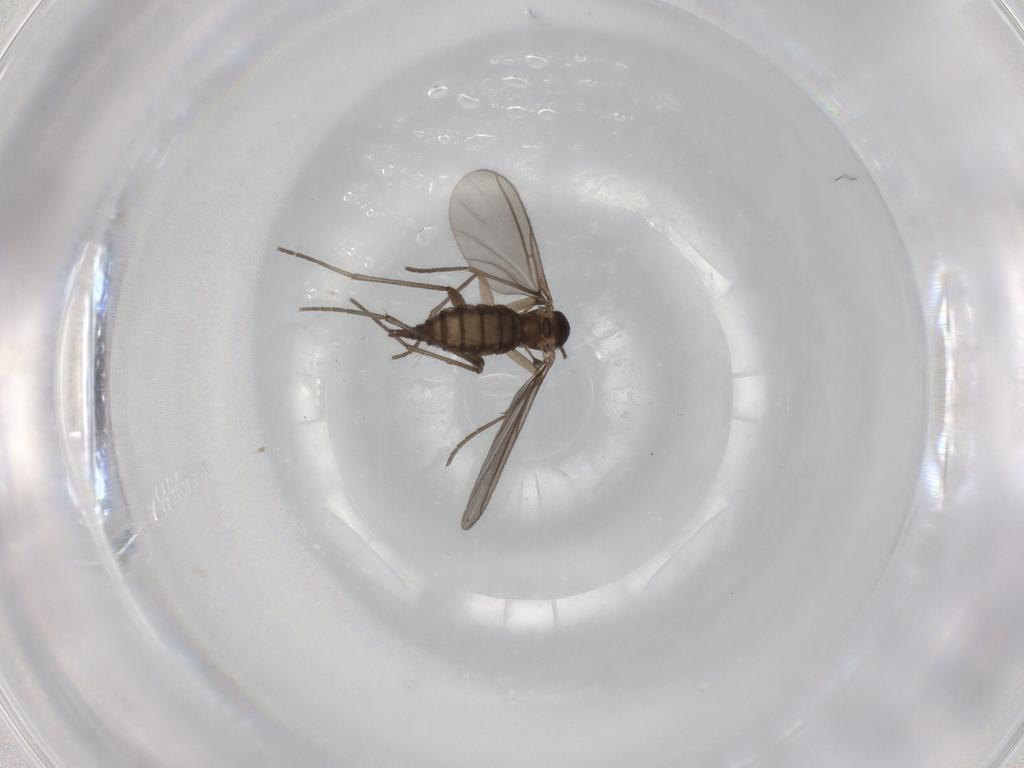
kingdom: Animalia
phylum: Arthropoda
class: Insecta
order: Diptera
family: Sciaridae
